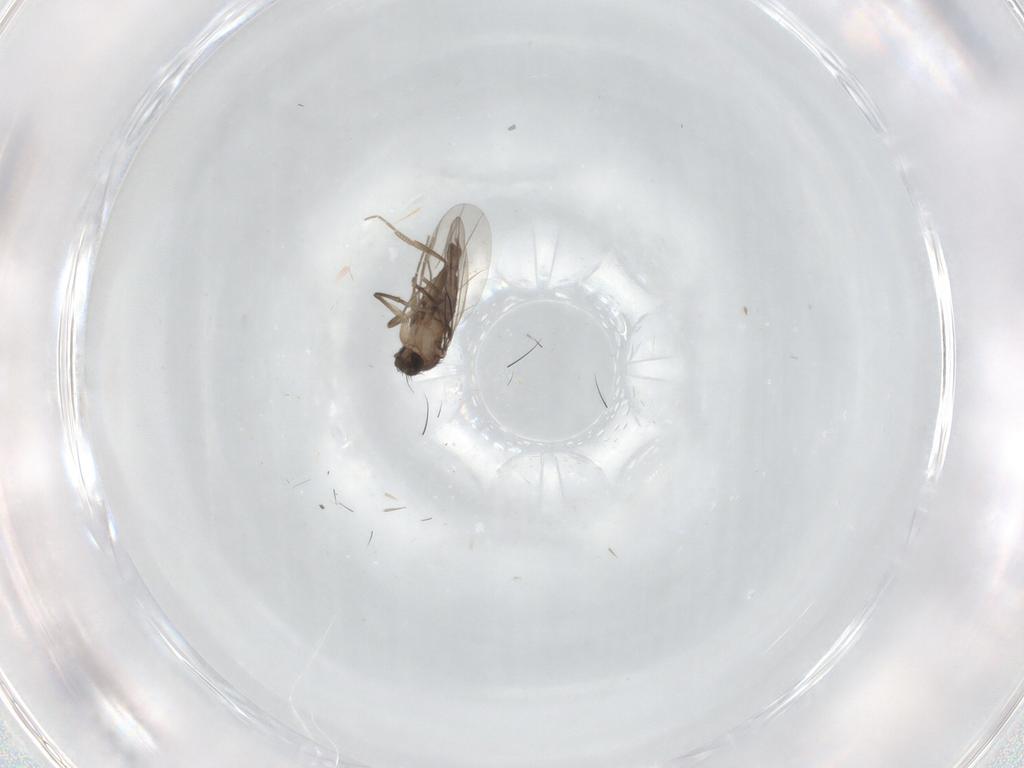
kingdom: Animalia
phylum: Arthropoda
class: Insecta
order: Diptera
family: Phoridae
